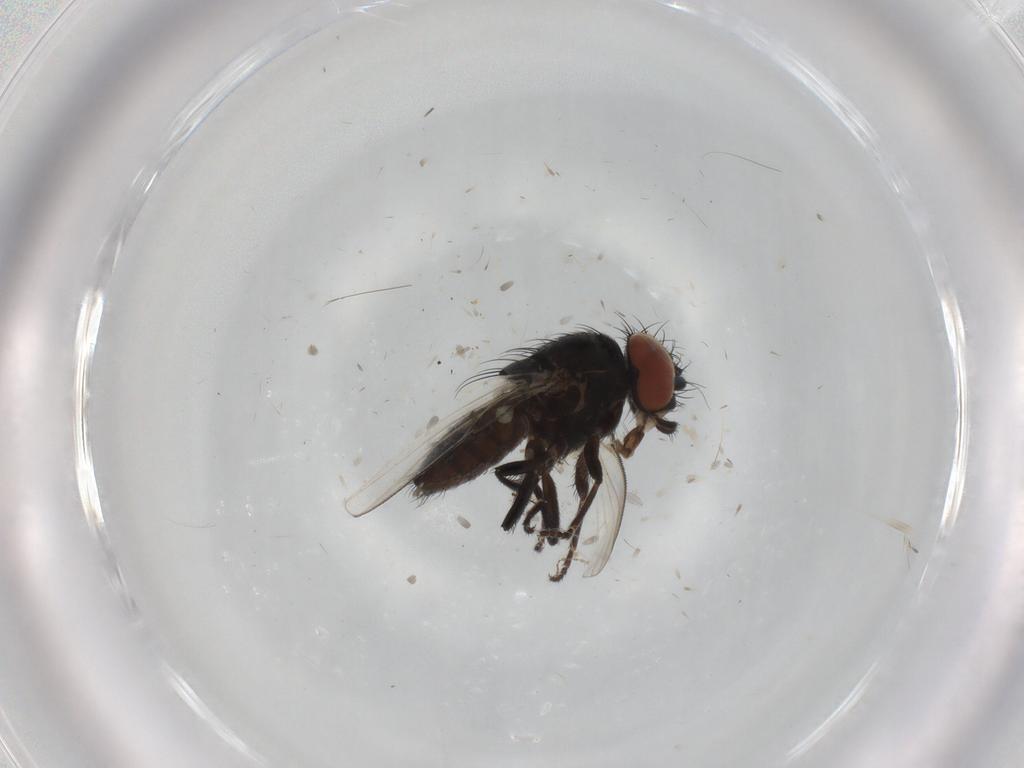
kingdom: Animalia
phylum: Arthropoda
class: Insecta
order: Diptera
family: Milichiidae
